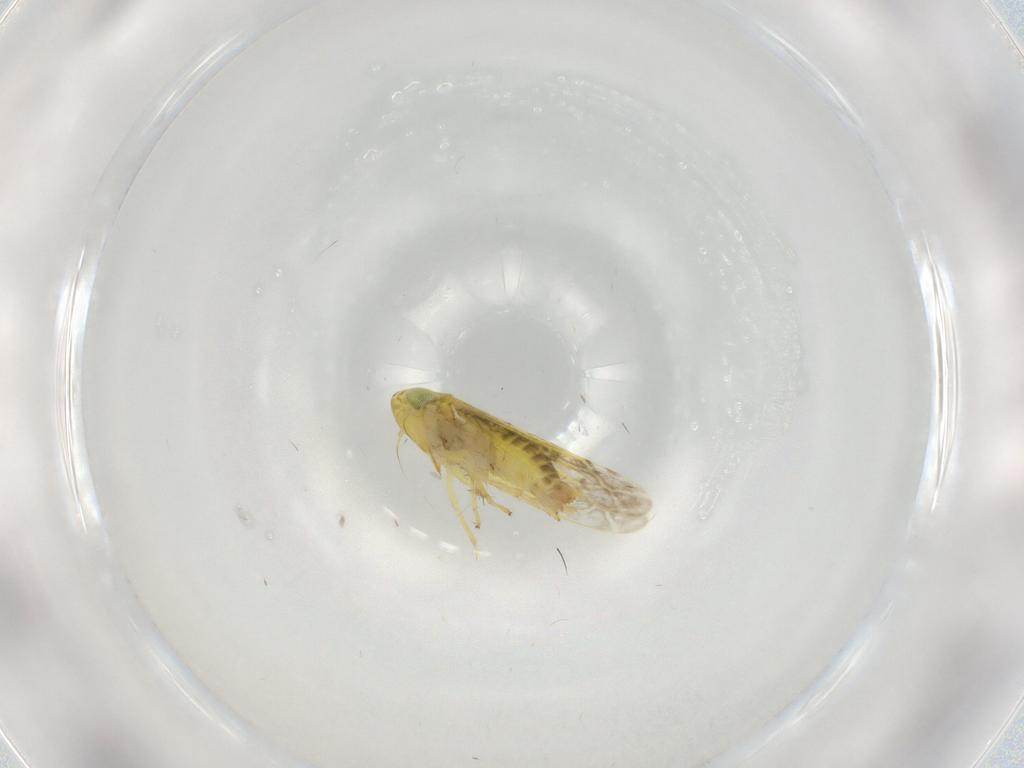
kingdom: Animalia
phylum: Arthropoda
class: Insecta
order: Hemiptera
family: Cicadellidae
